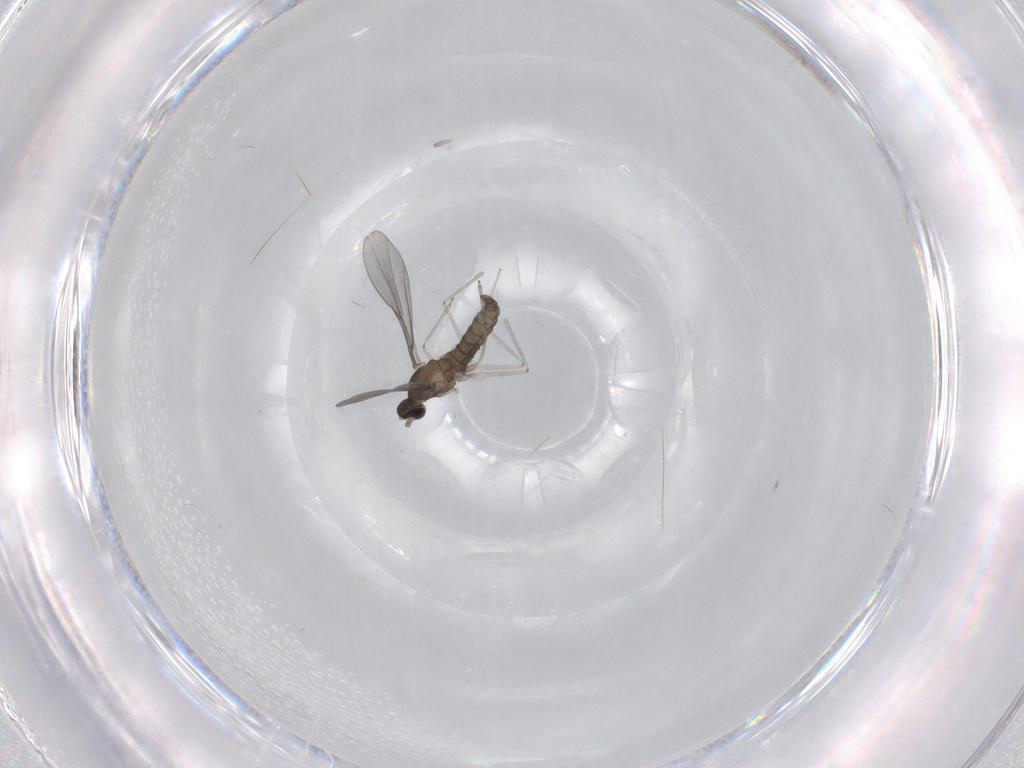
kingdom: Animalia
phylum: Arthropoda
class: Insecta
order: Diptera
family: Cecidomyiidae
